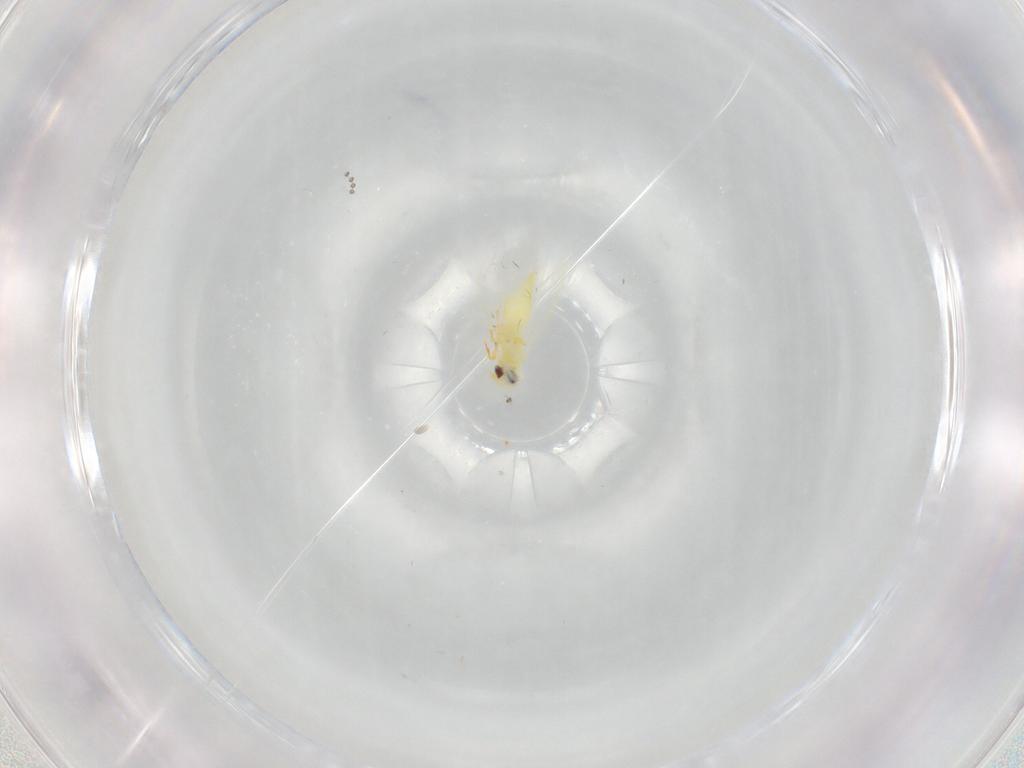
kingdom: Animalia
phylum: Arthropoda
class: Insecta
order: Hemiptera
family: Aleyrodidae
